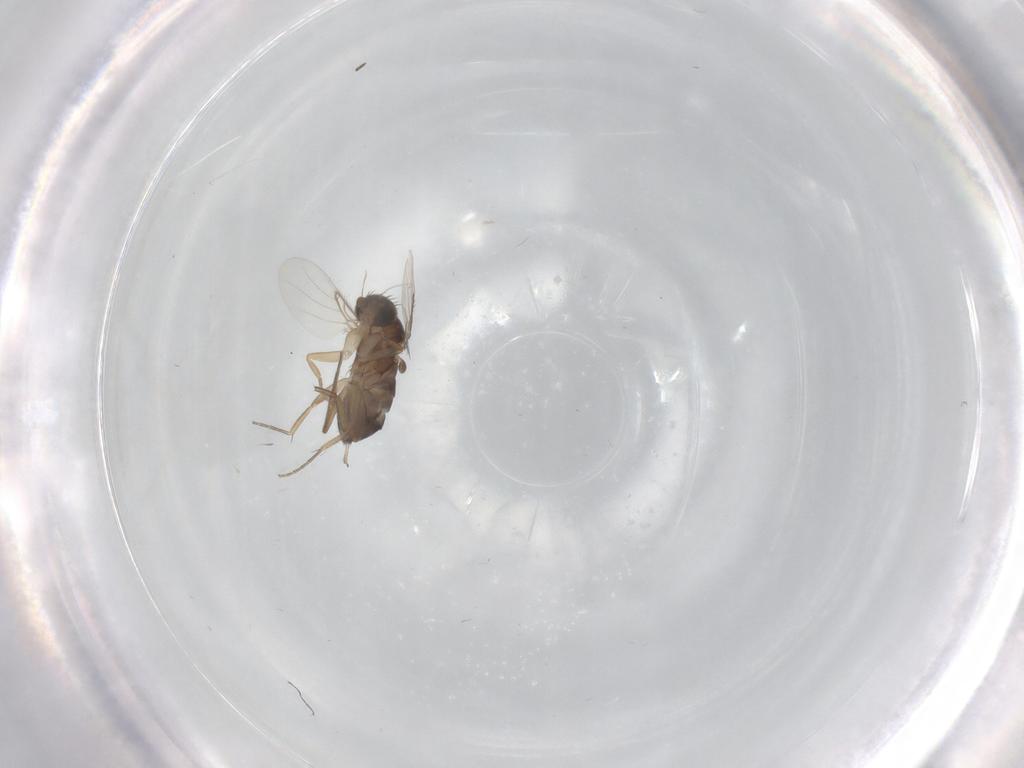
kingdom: Animalia
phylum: Arthropoda
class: Insecta
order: Diptera
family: Phoridae
